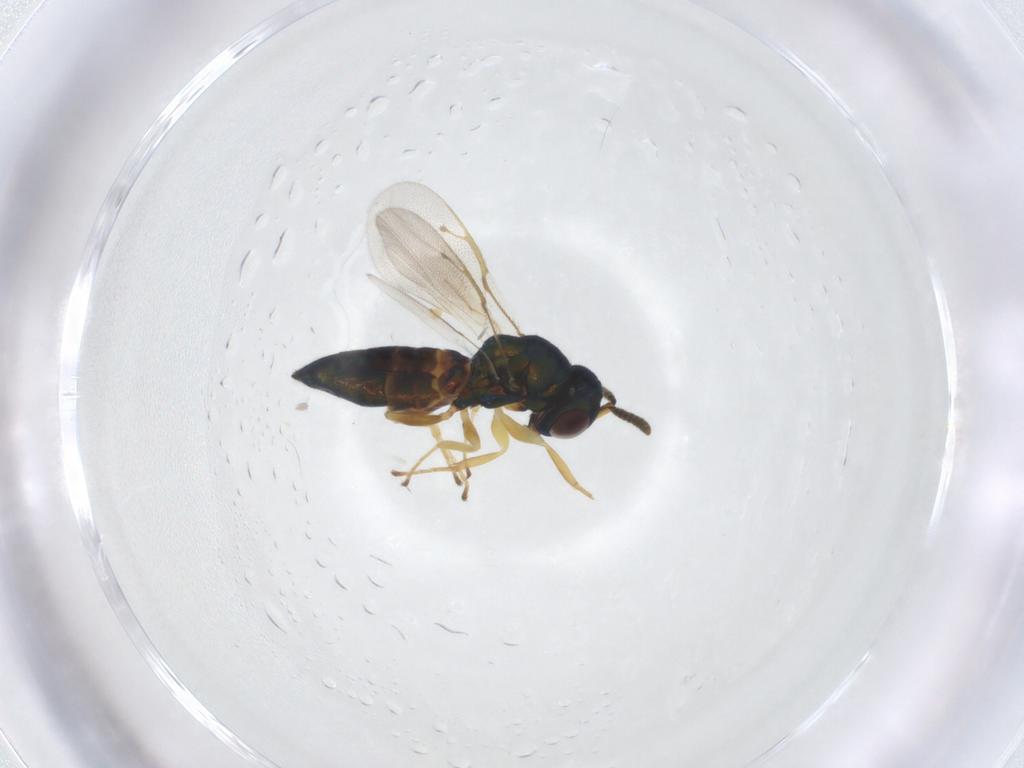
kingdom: Animalia
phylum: Arthropoda
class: Insecta
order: Hymenoptera
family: Pteromalidae
